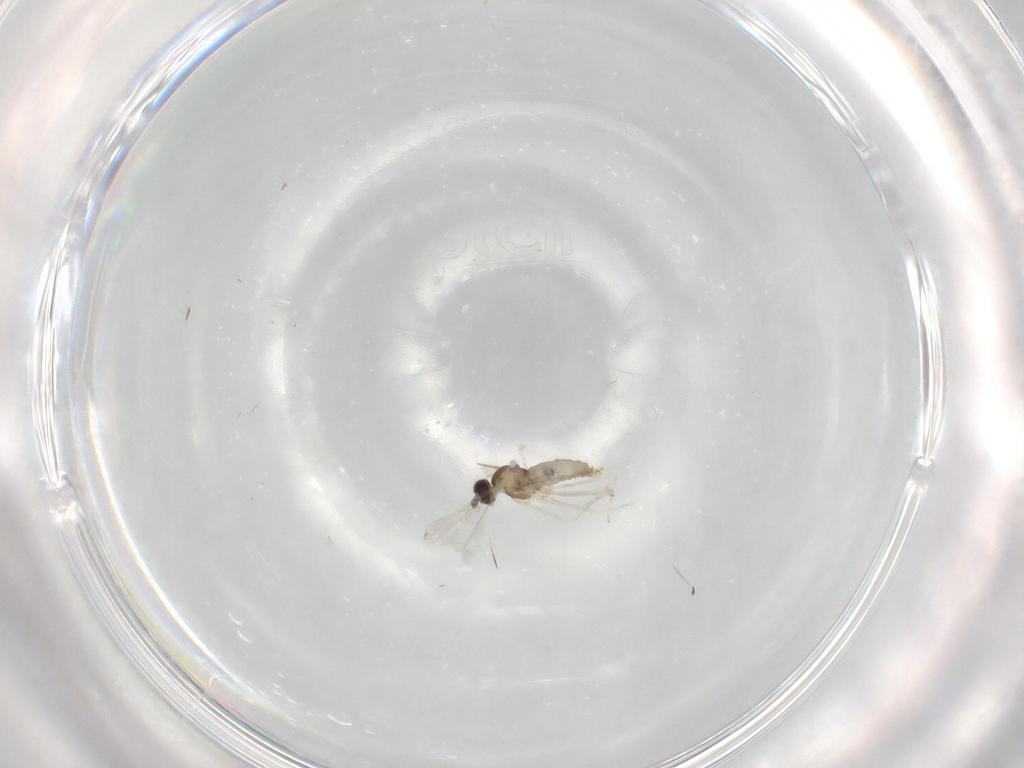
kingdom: Animalia
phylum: Arthropoda
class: Insecta
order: Diptera
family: Cecidomyiidae
